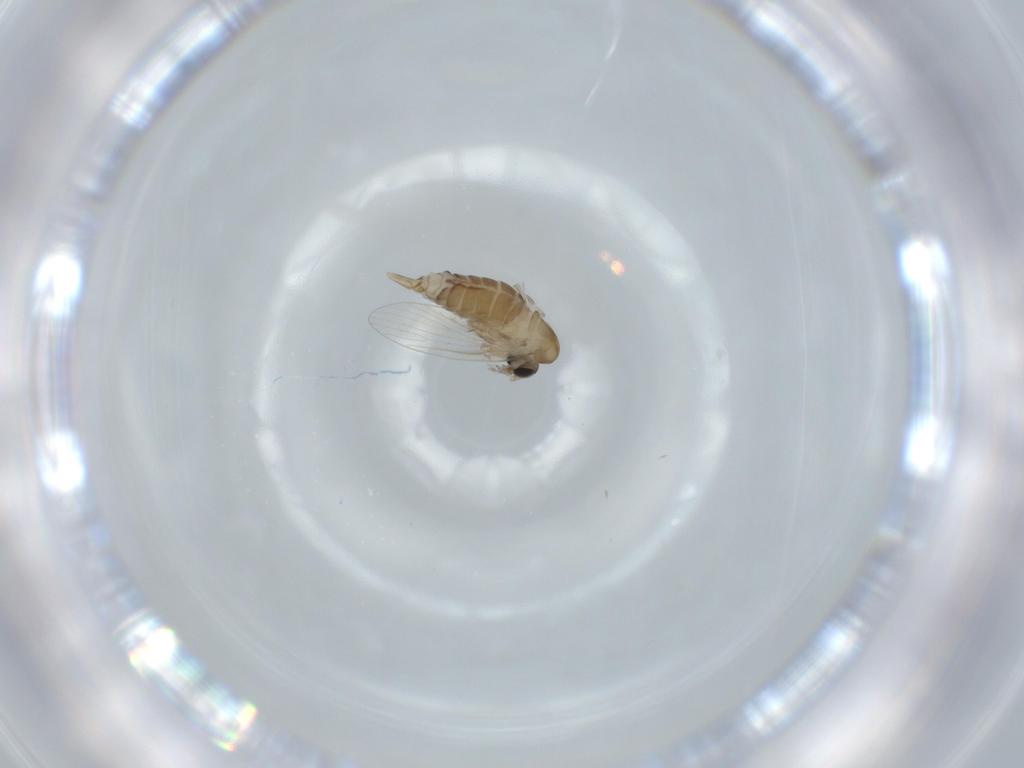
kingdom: Animalia
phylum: Arthropoda
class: Insecta
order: Diptera
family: Psychodidae
